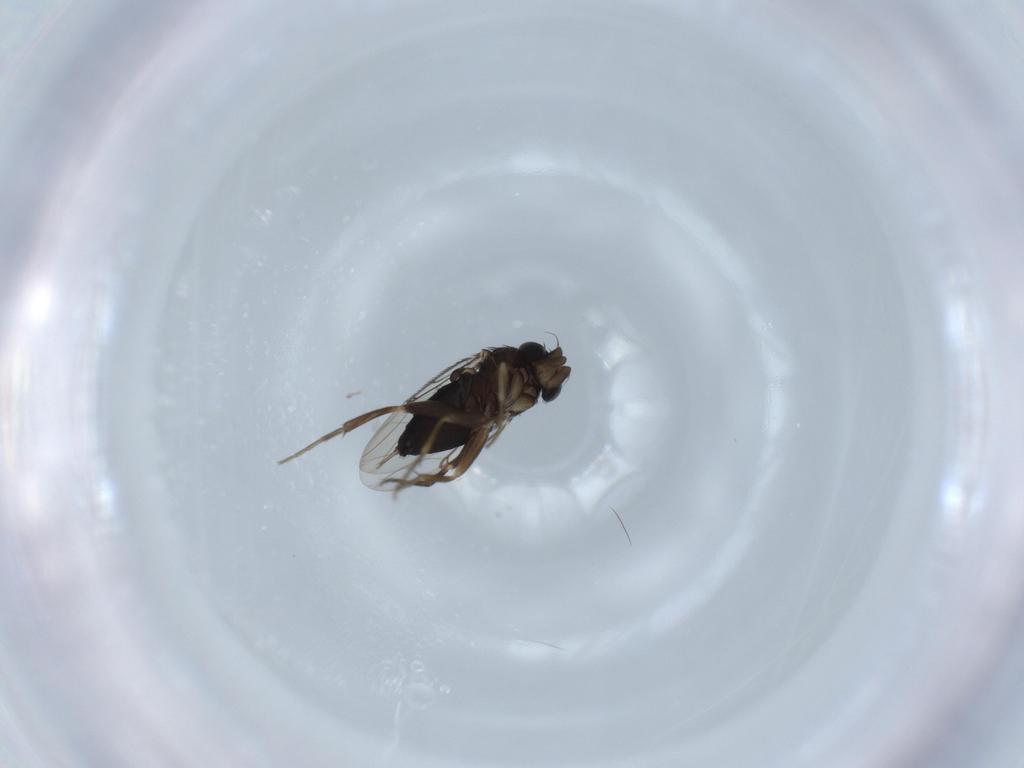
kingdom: Animalia
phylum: Arthropoda
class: Insecta
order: Diptera
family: Phoridae
